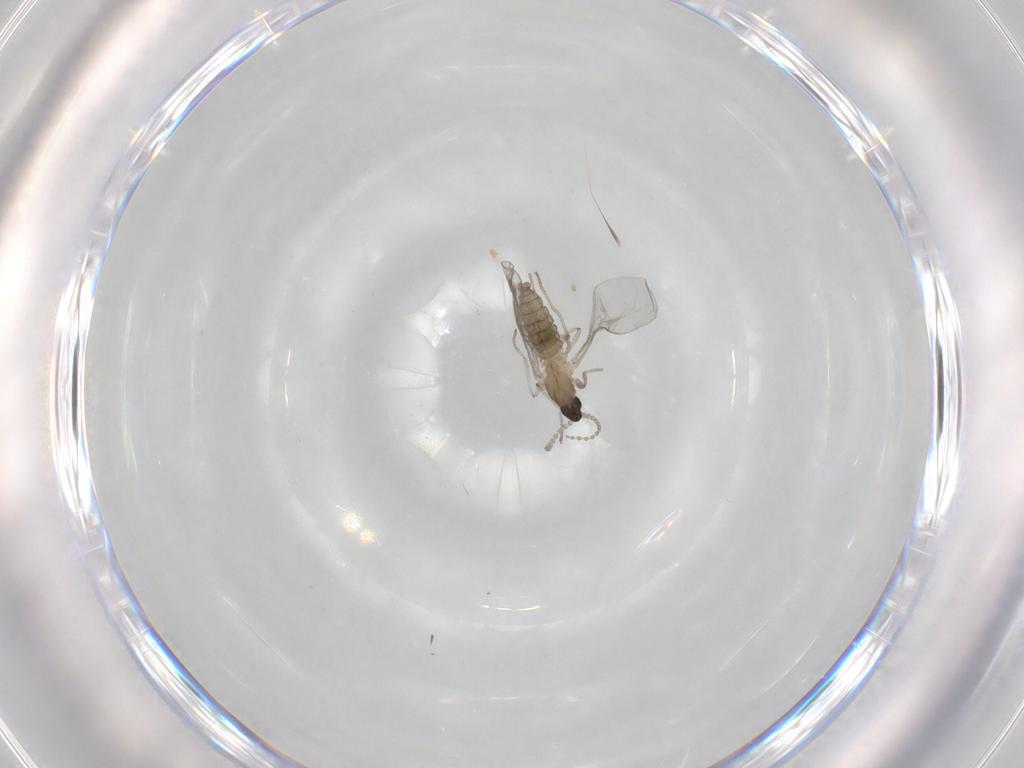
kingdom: Animalia
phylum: Arthropoda
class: Insecta
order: Diptera
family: Cecidomyiidae
